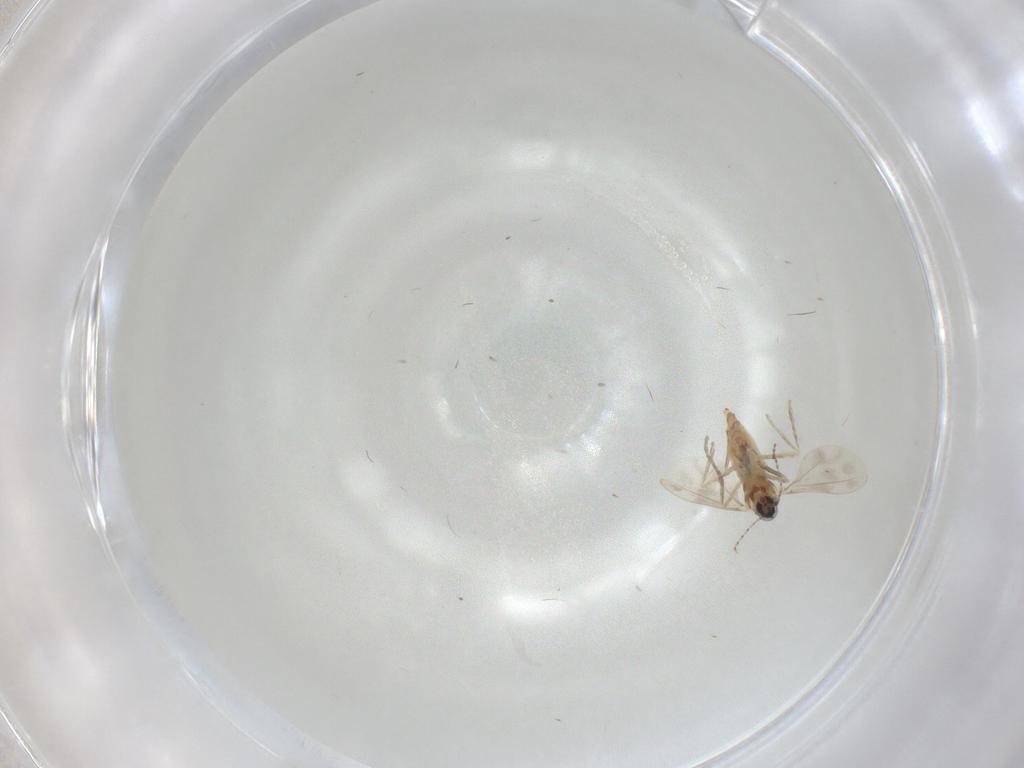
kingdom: Animalia
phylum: Arthropoda
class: Insecta
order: Diptera
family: Cecidomyiidae
